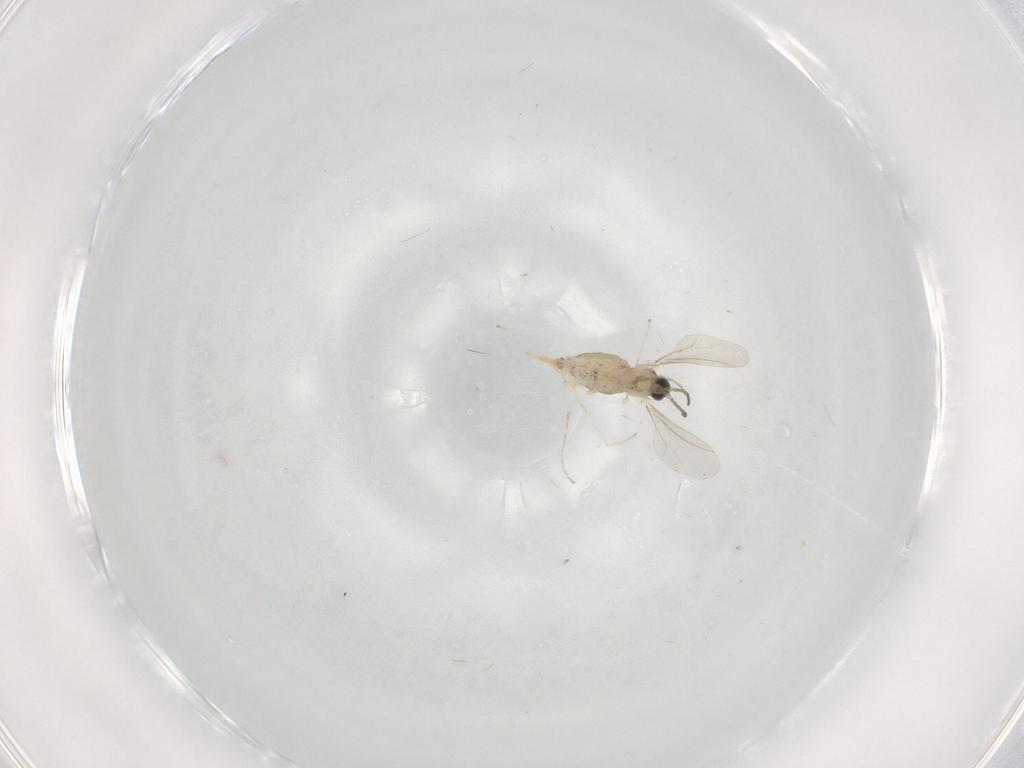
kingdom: Animalia
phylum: Arthropoda
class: Insecta
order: Diptera
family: Cecidomyiidae
